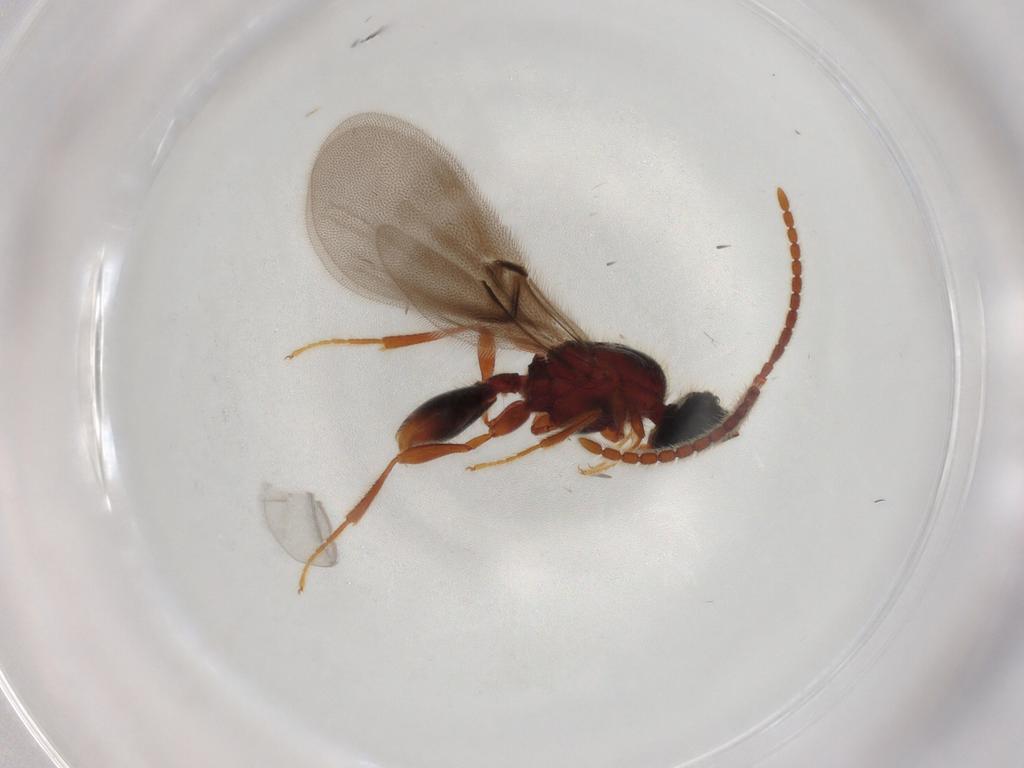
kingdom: Animalia
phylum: Arthropoda
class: Insecta
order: Hymenoptera
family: Diapriidae
